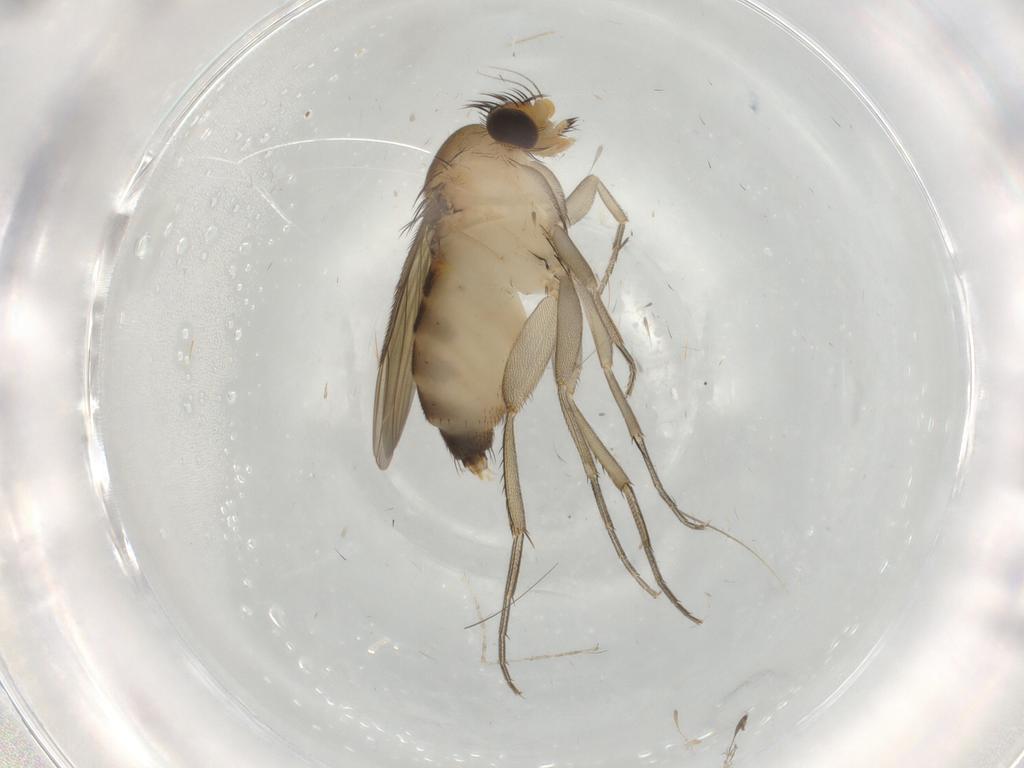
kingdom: Animalia
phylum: Arthropoda
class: Insecta
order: Diptera
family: Phoridae
